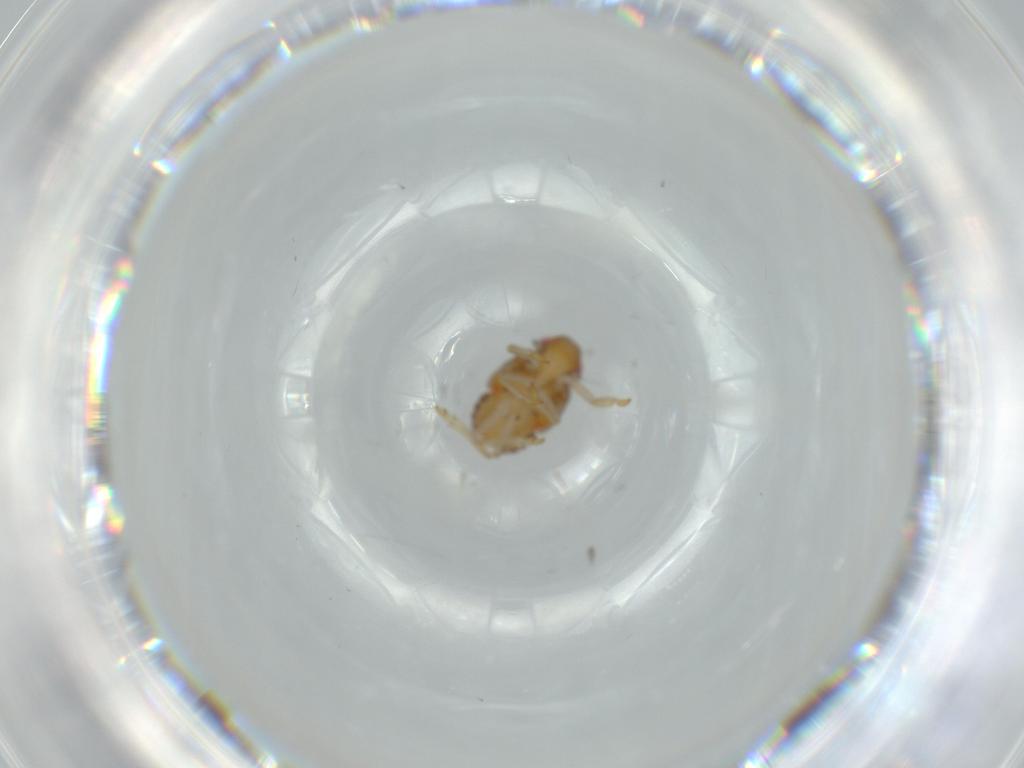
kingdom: Animalia
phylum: Arthropoda
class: Insecta
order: Hemiptera
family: Issidae
